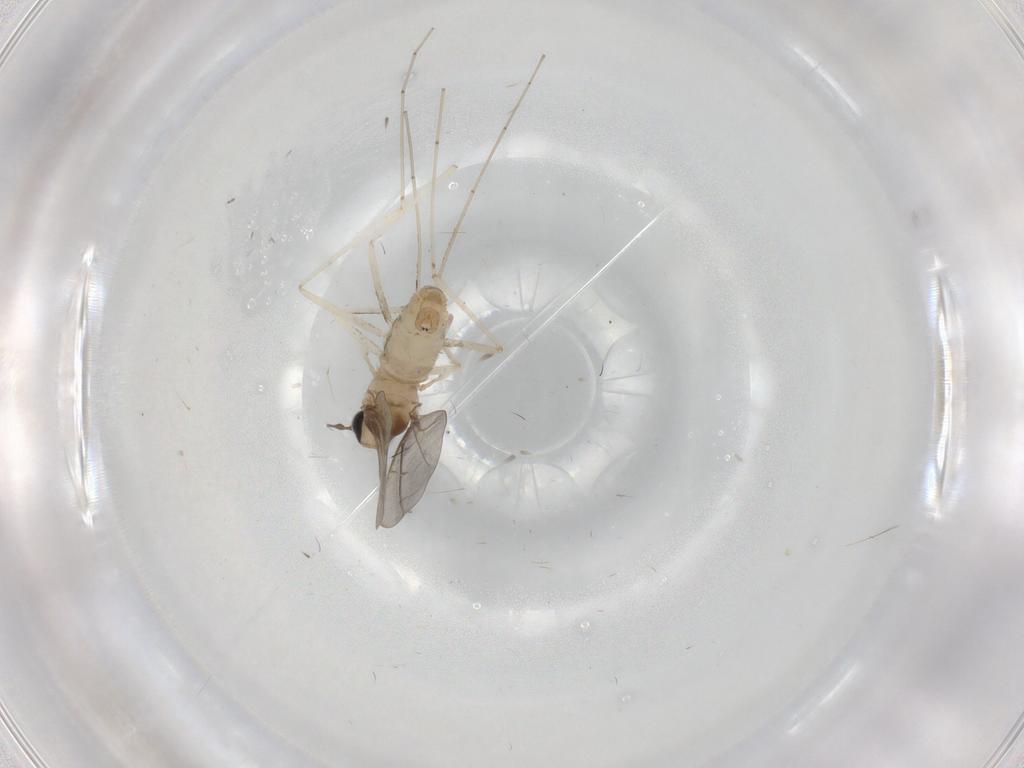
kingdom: Animalia
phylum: Arthropoda
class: Insecta
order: Diptera
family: Cecidomyiidae
